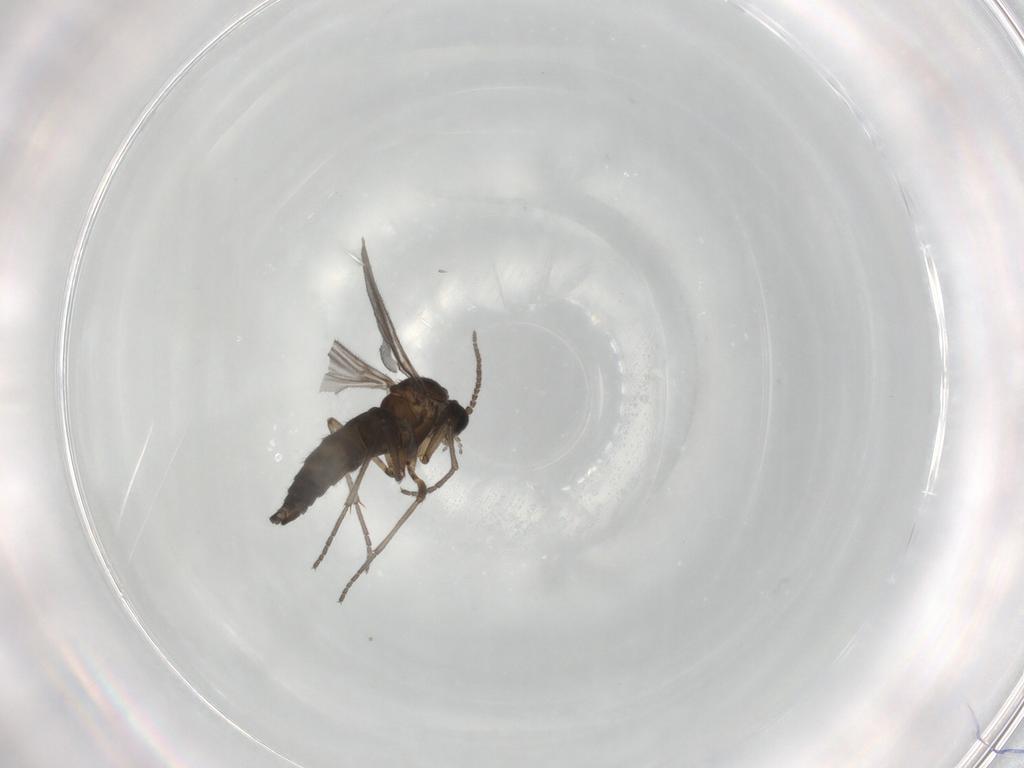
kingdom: Animalia
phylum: Arthropoda
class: Insecta
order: Diptera
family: Sciaridae
